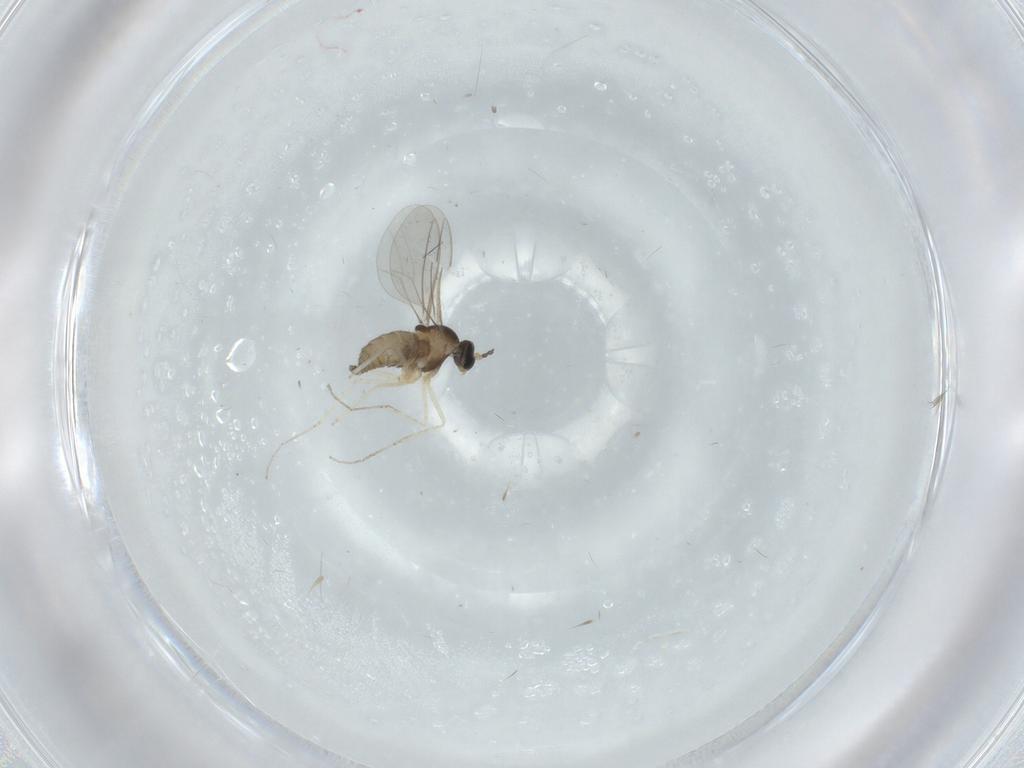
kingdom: Animalia
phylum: Arthropoda
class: Insecta
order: Diptera
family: Cecidomyiidae
